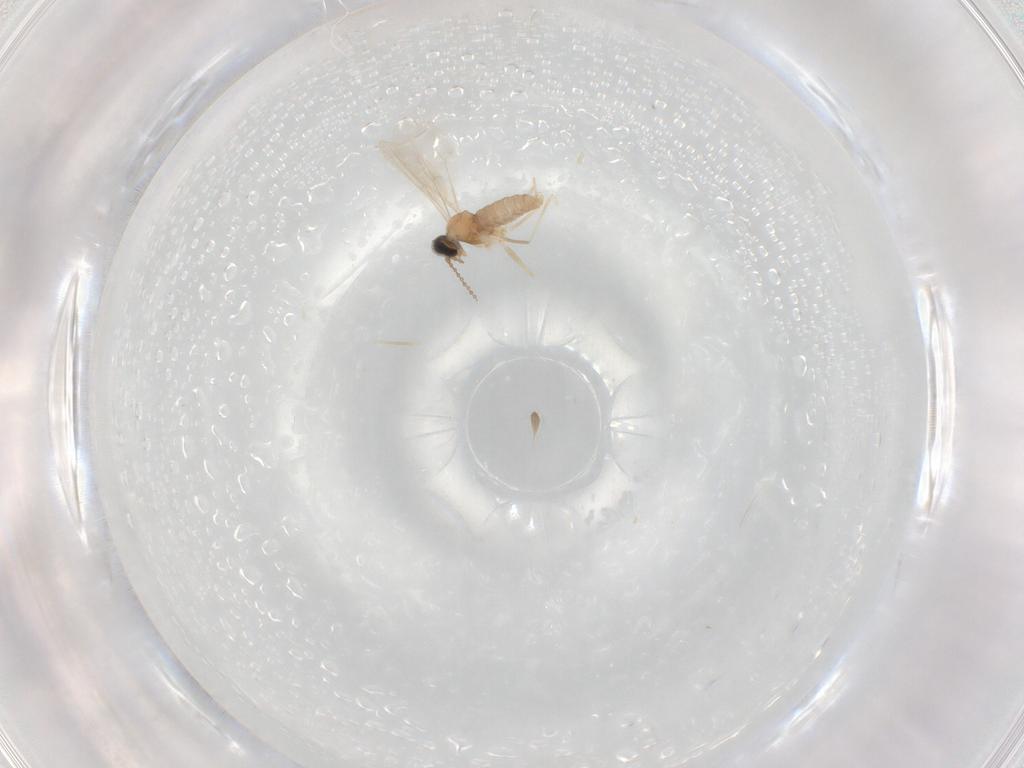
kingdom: Animalia
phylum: Arthropoda
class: Insecta
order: Diptera
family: Cecidomyiidae
